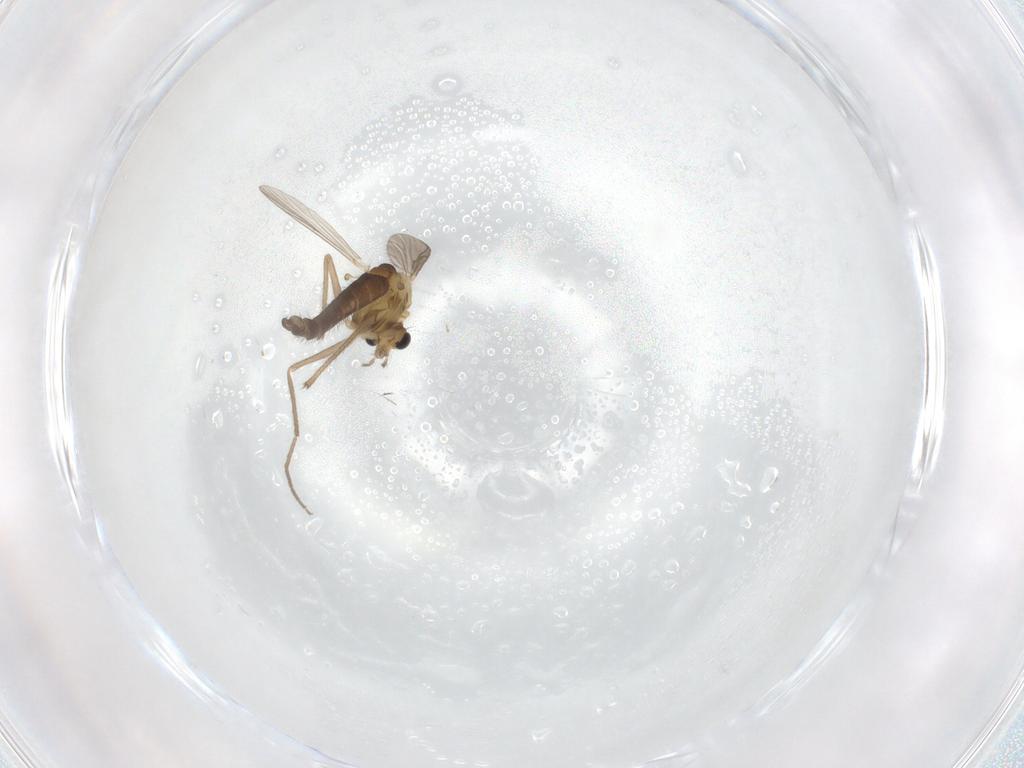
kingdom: Animalia
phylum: Arthropoda
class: Insecta
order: Diptera
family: Chironomidae
